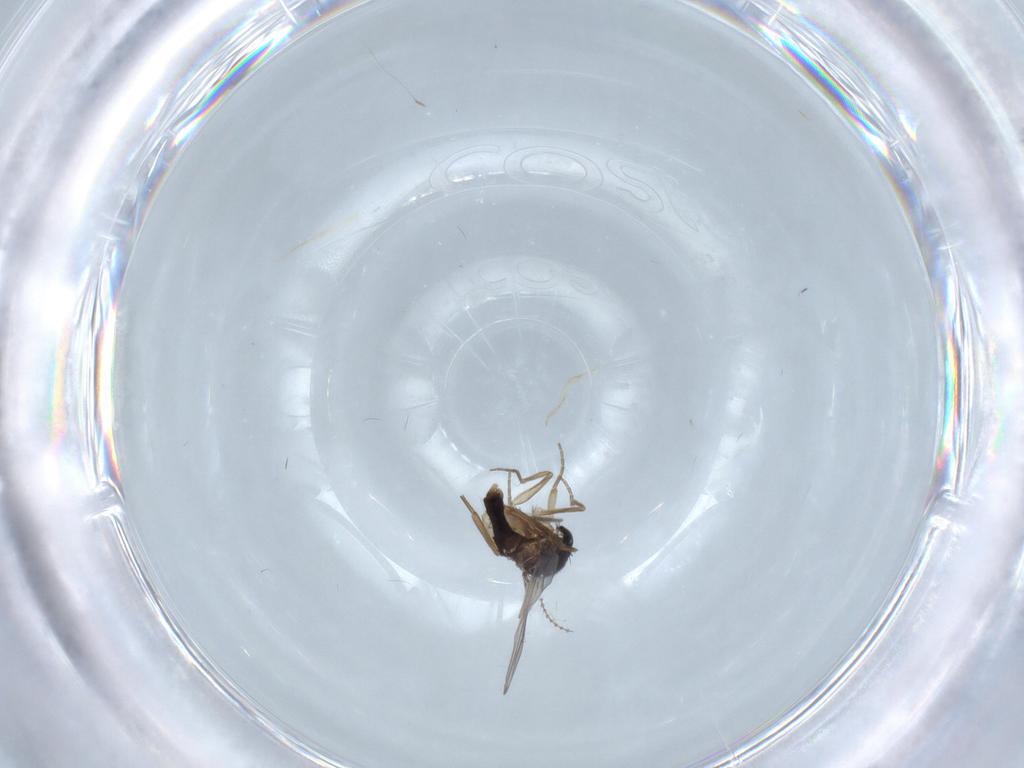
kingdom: Animalia
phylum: Arthropoda
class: Insecta
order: Diptera
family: Phoridae
